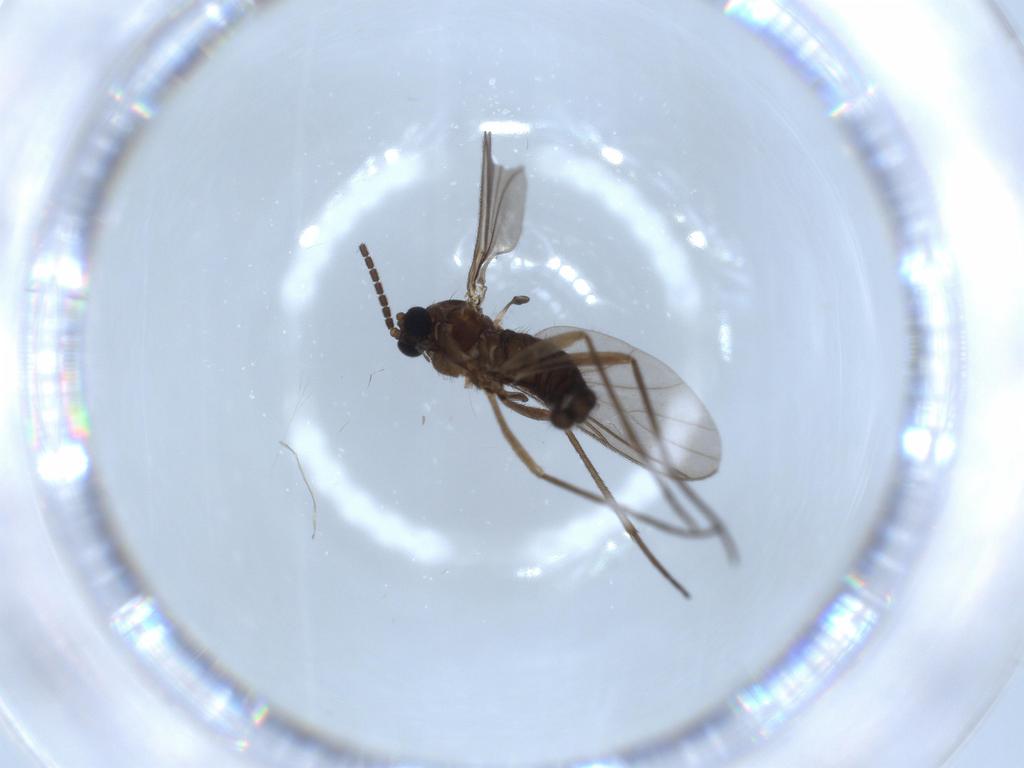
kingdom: Animalia
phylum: Arthropoda
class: Insecta
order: Diptera
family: Sciaridae
